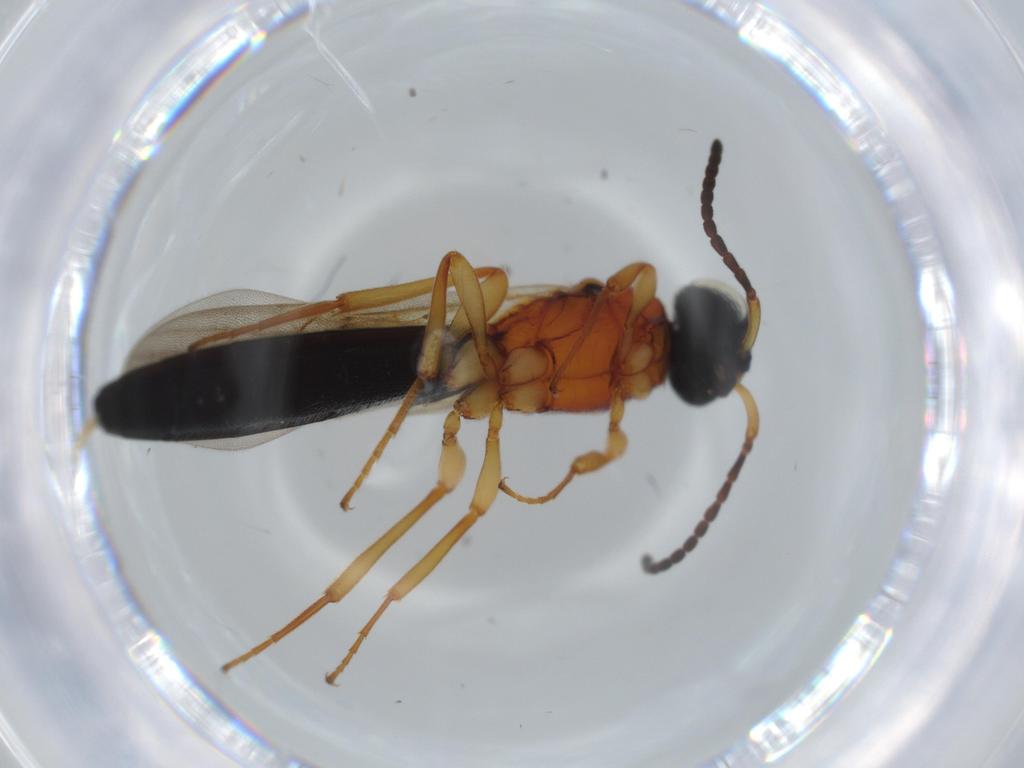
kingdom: Animalia
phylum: Arthropoda
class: Insecta
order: Hymenoptera
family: Scelionidae
